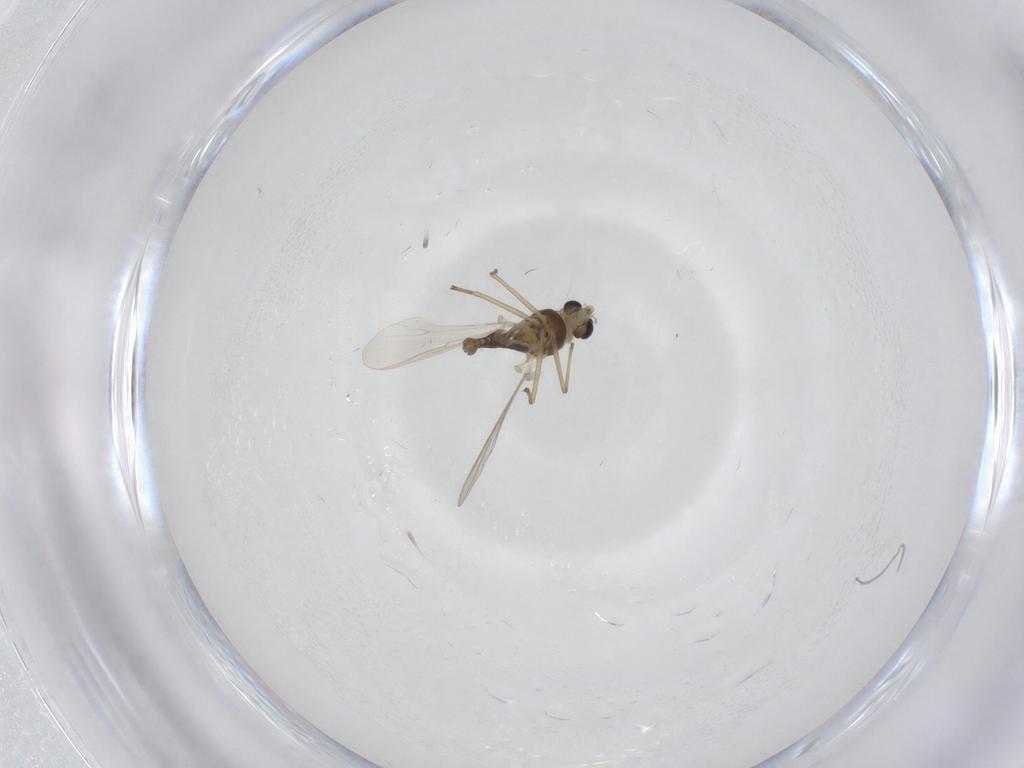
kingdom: Animalia
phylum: Arthropoda
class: Insecta
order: Diptera
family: Chironomidae
